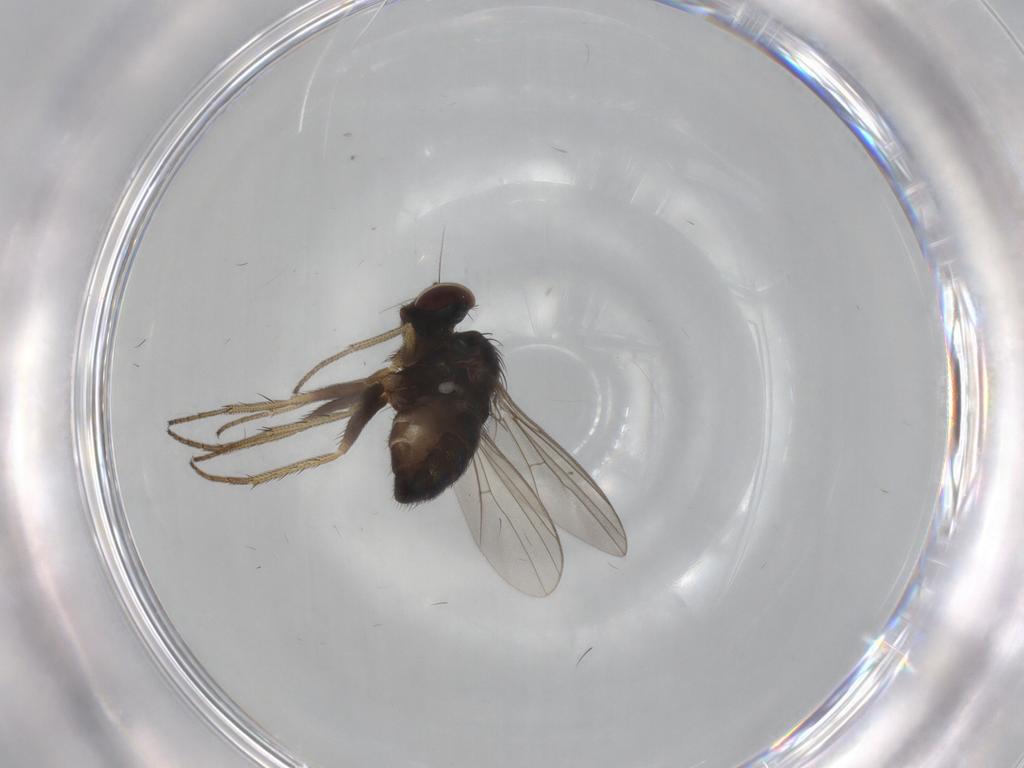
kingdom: Animalia
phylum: Arthropoda
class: Insecta
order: Diptera
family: Dolichopodidae
